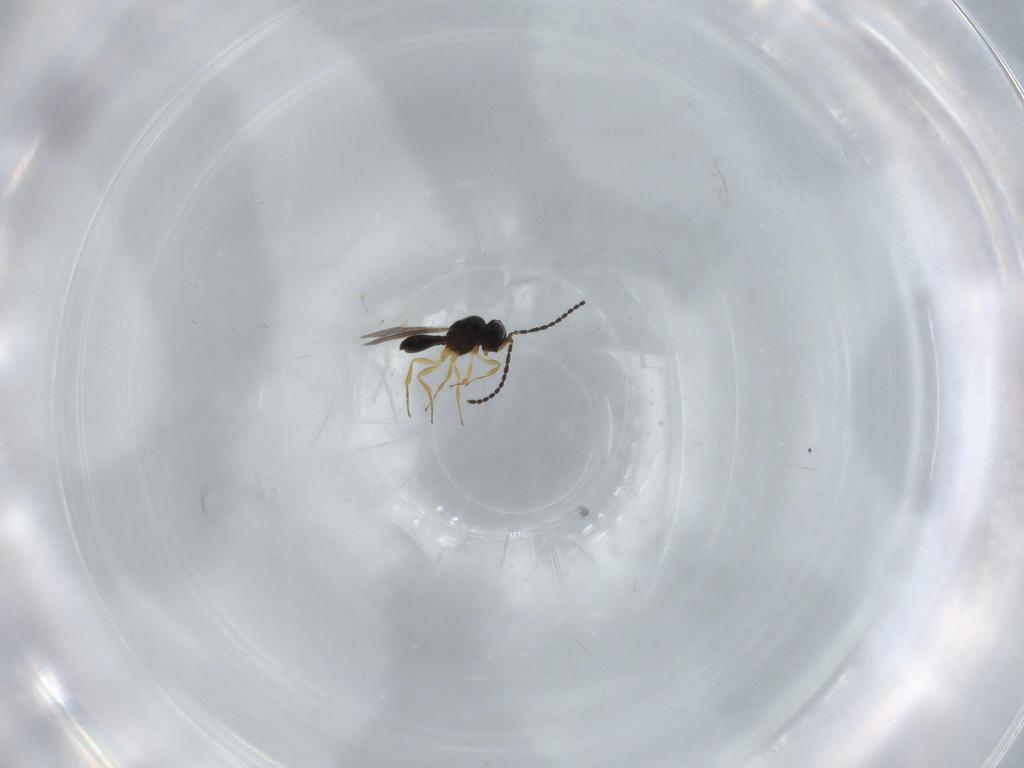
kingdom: Animalia
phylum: Arthropoda
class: Insecta
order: Hymenoptera
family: Scelionidae
